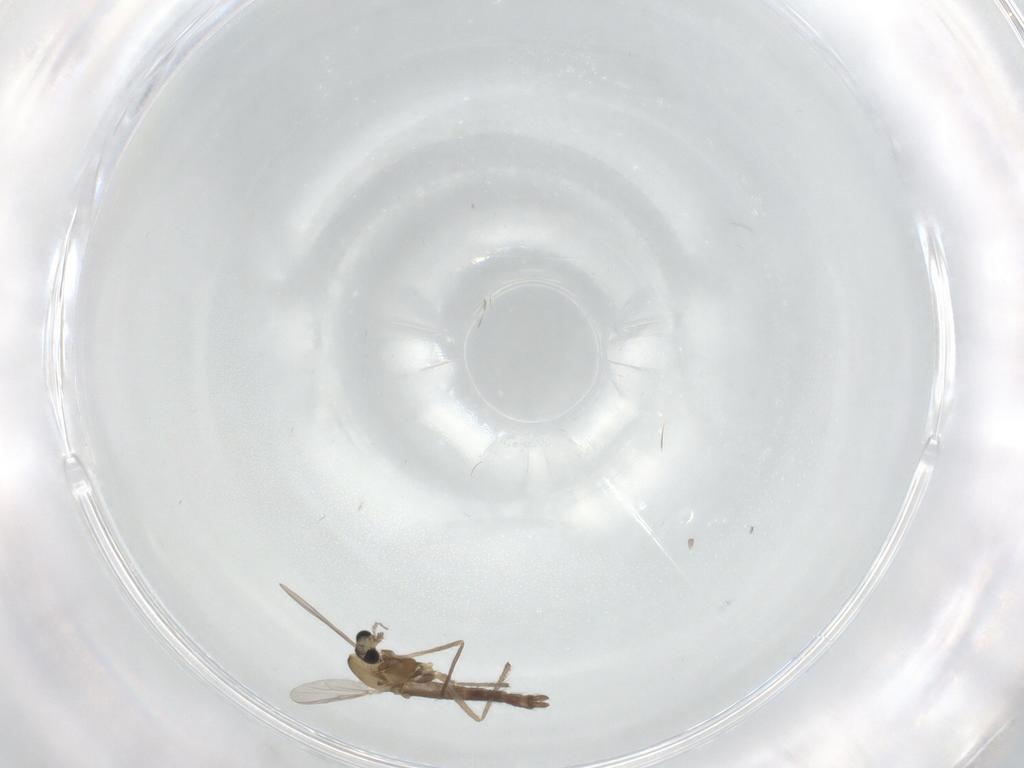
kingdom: Animalia
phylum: Arthropoda
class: Insecta
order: Diptera
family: Chironomidae
